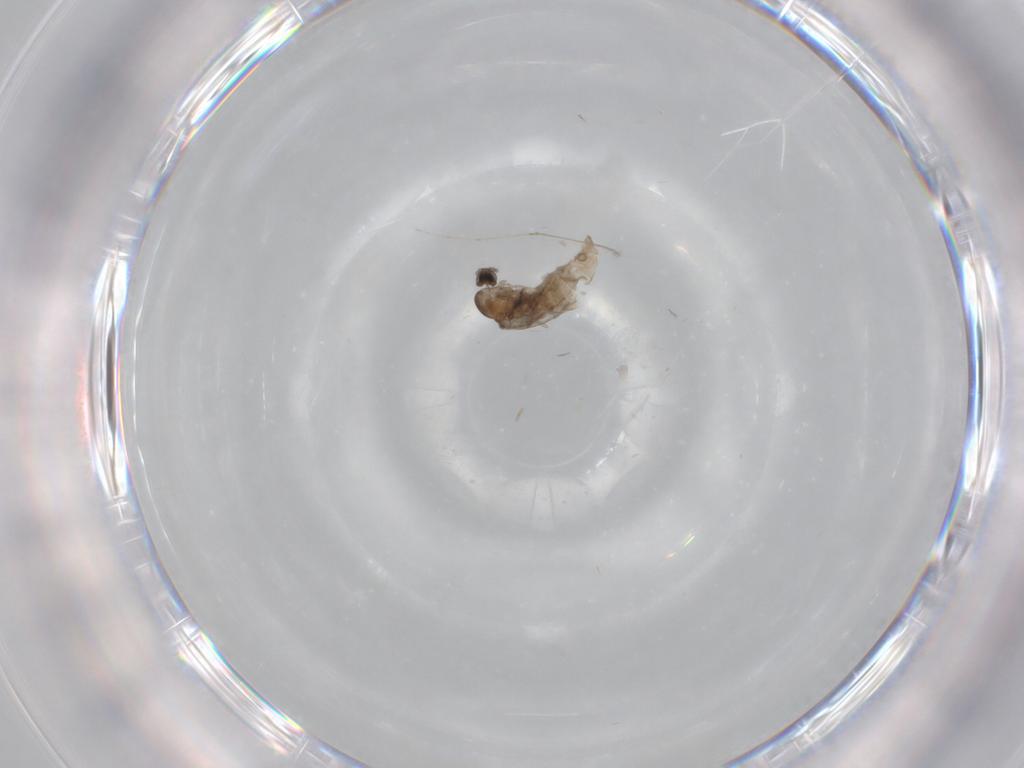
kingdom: Animalia
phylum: Arthropoda
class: Insecta
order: Diptera
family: Cecidomyiidae
